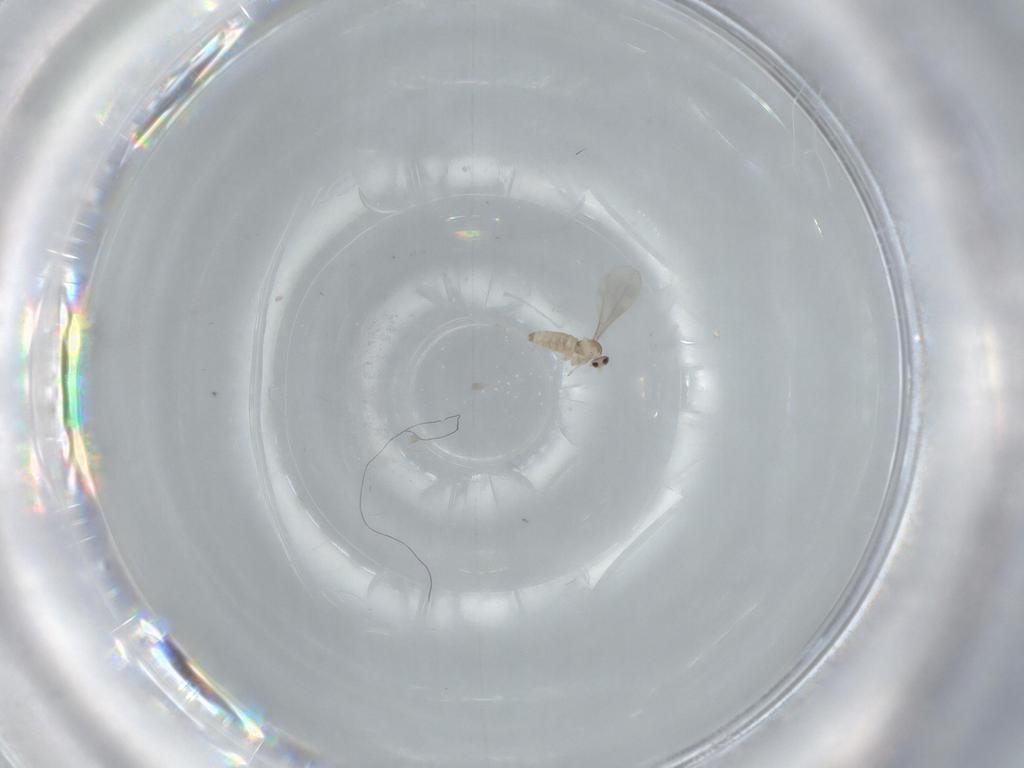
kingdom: Animalia
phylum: Arthropoda
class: Insecta
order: Diptera
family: Cecidomyiidae
